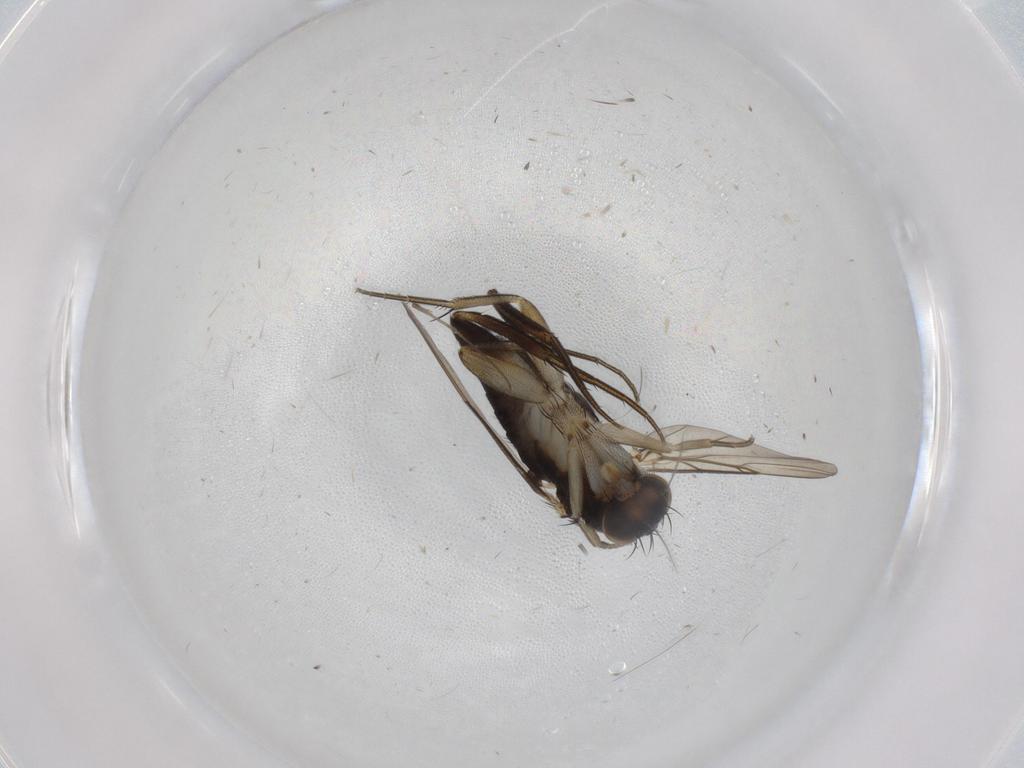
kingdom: Animalia
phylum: Arthropoda
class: Insecta
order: Diptera
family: Phoridae
